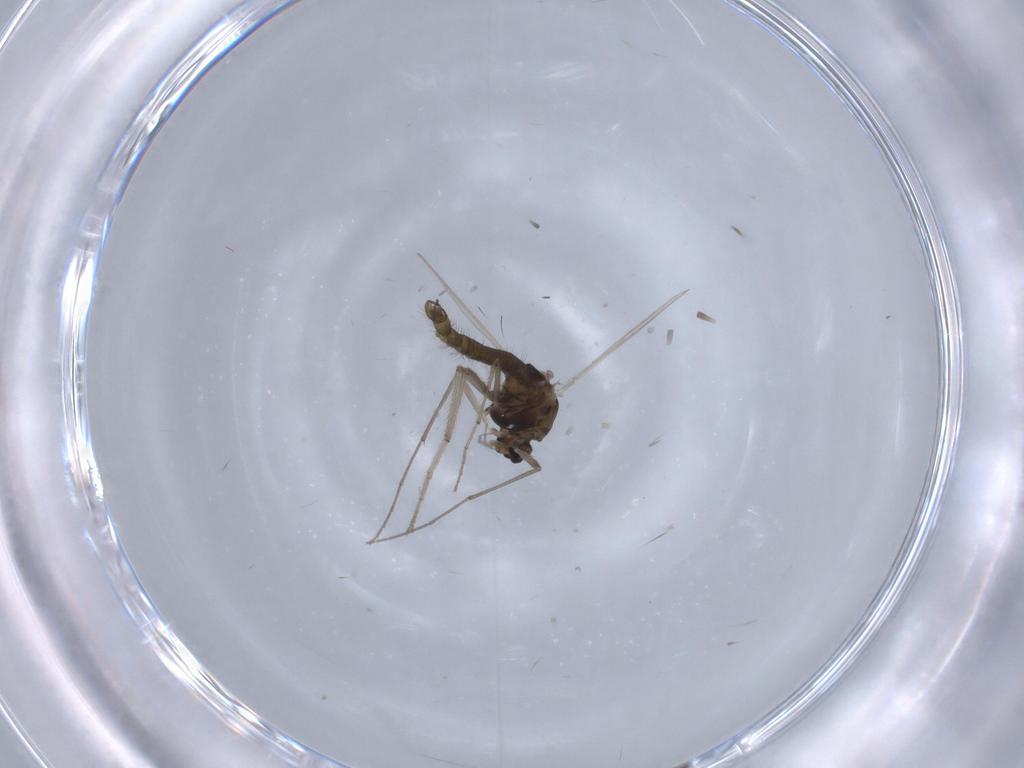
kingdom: Animalia
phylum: Arthropoda
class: Insecta
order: Diptera
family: Chironomidae
